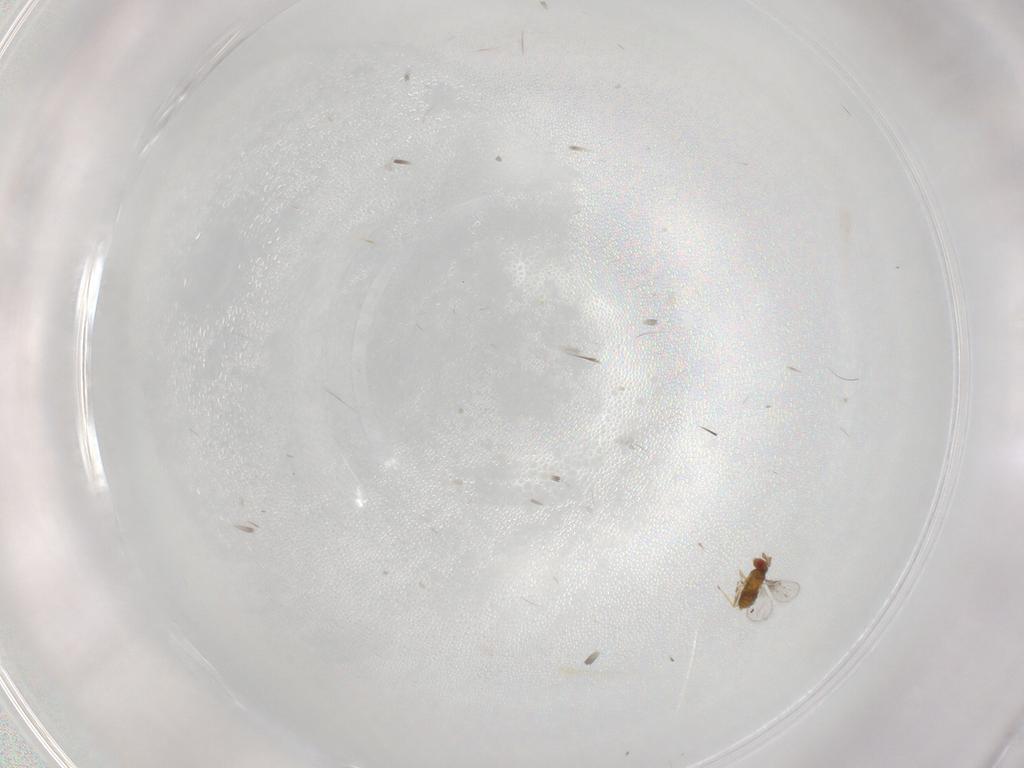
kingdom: Animalia
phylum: Arthropoda
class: Insecta
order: Hymenoptera
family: Scelionidae
